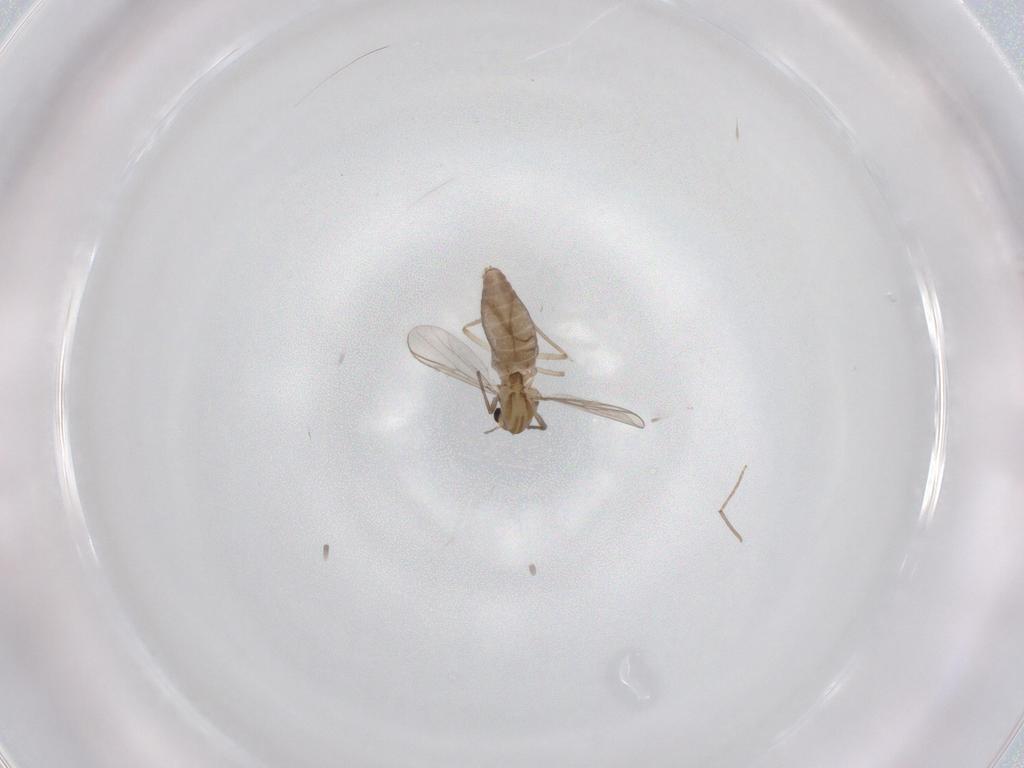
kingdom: Animalia
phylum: Arthropoda
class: Insecta
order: Diptera
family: Chironomidae
